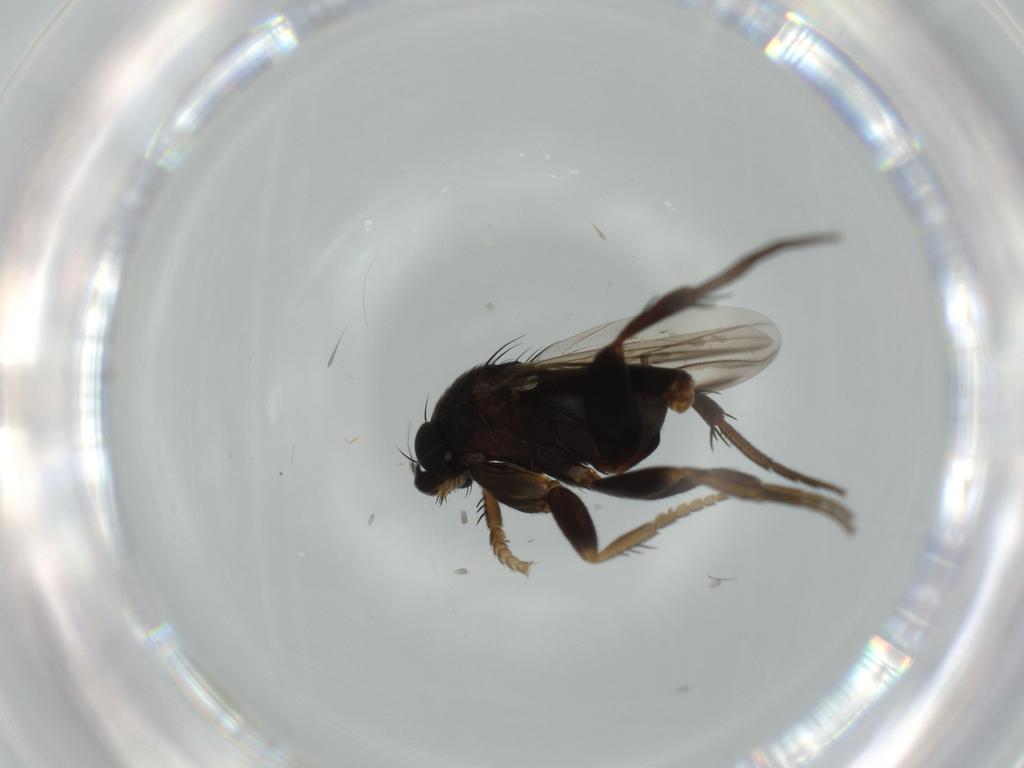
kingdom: Animalia
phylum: Arthropoda
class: Insecta
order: Diptera
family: Phoridae
